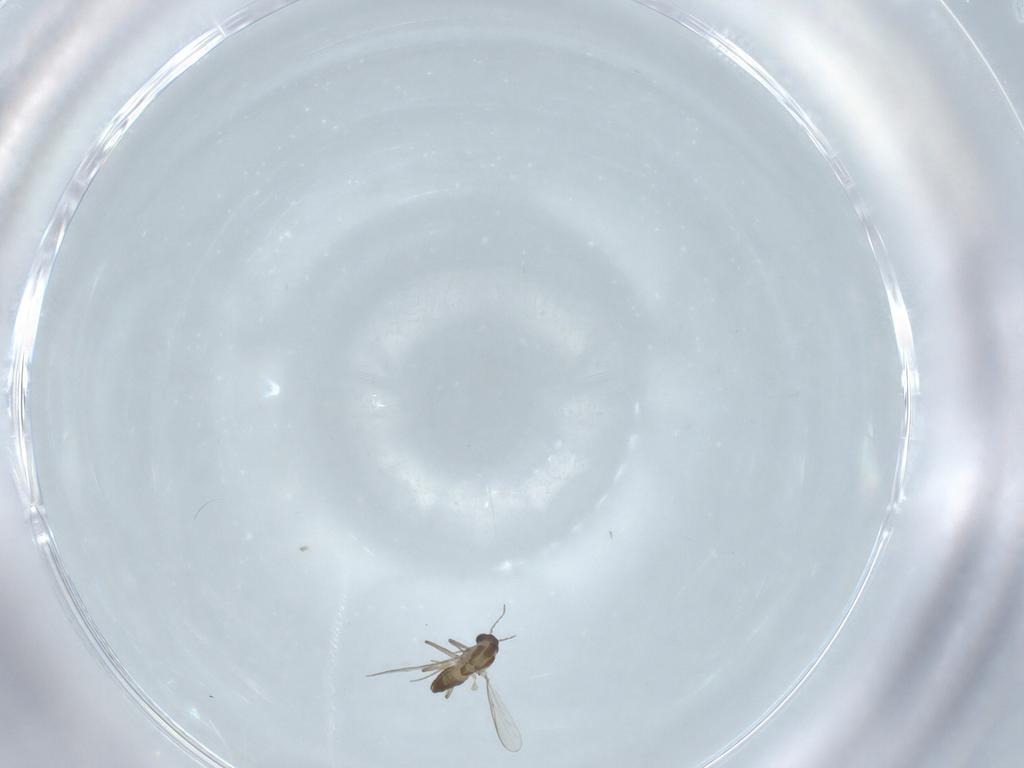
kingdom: Animalia
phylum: Arthropoda
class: Insecta
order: Diptera
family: Chironomidae
